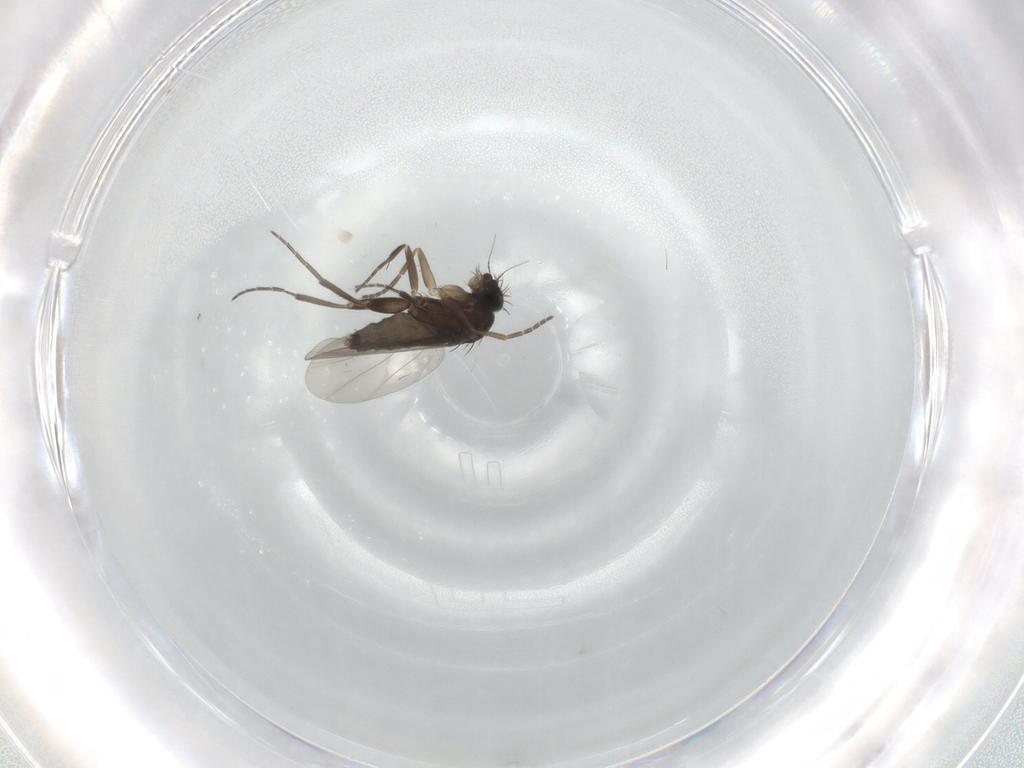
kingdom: Animalia
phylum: Arthropoda
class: Insecta
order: Diptera
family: Phoridae
